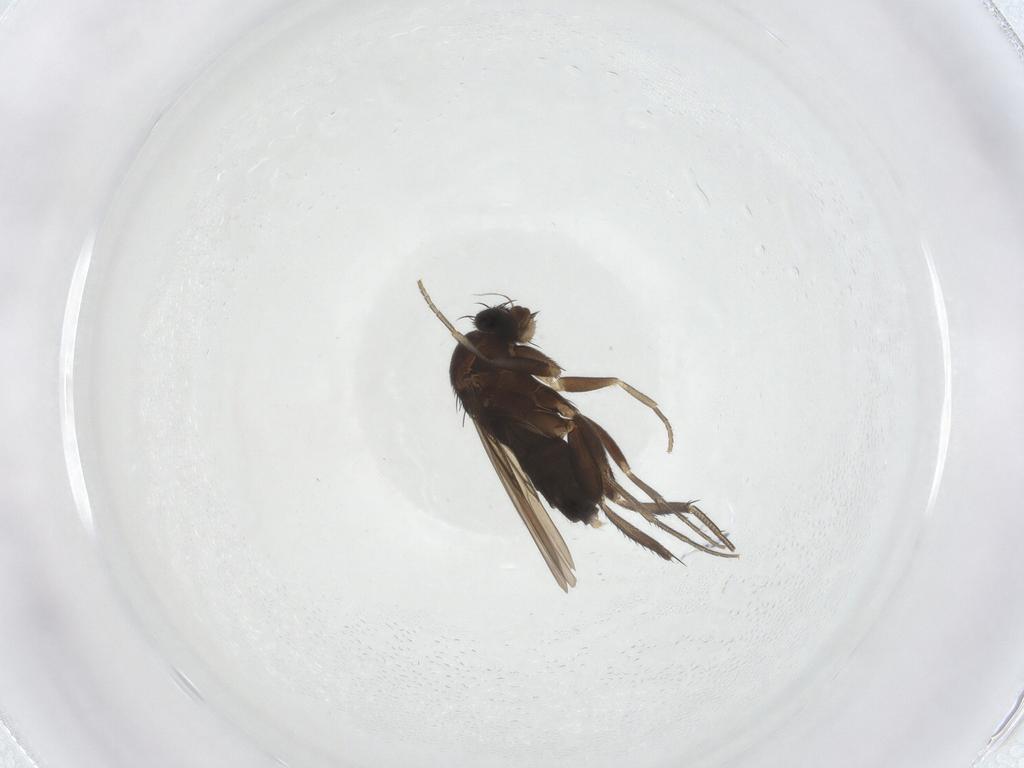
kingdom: Animalia
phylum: Arthropoda
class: Insecta
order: Diptera
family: Phoridae
